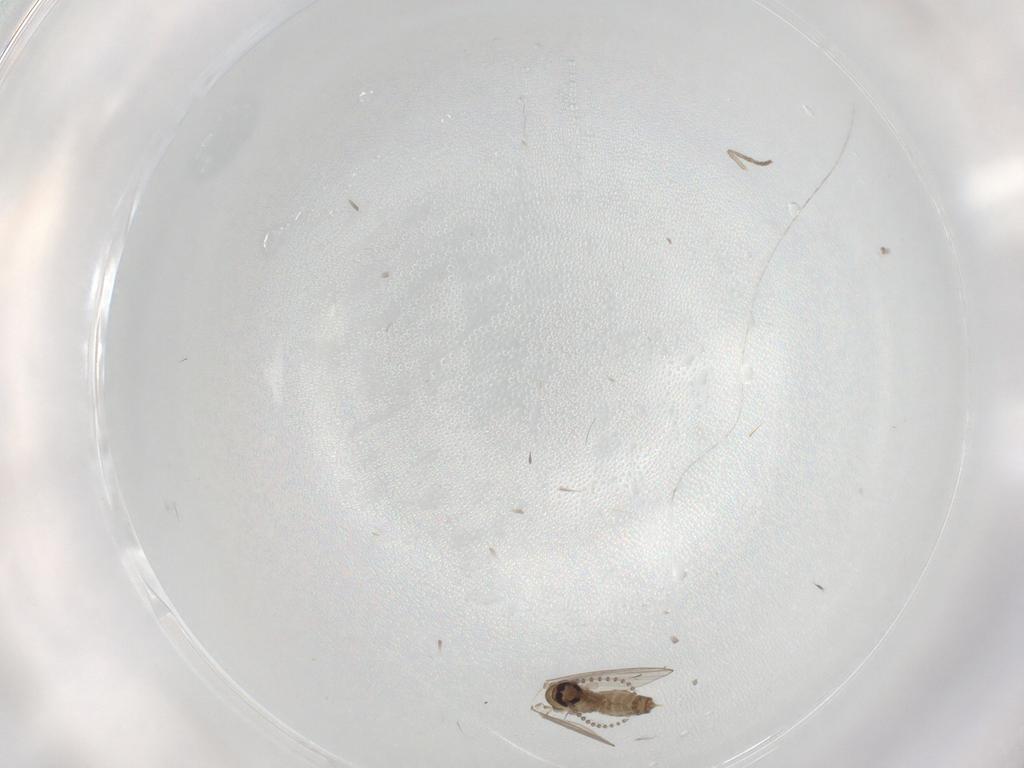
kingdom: Animalia
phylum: Arthropoda
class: Insecta
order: Diptera
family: Psychodidae
